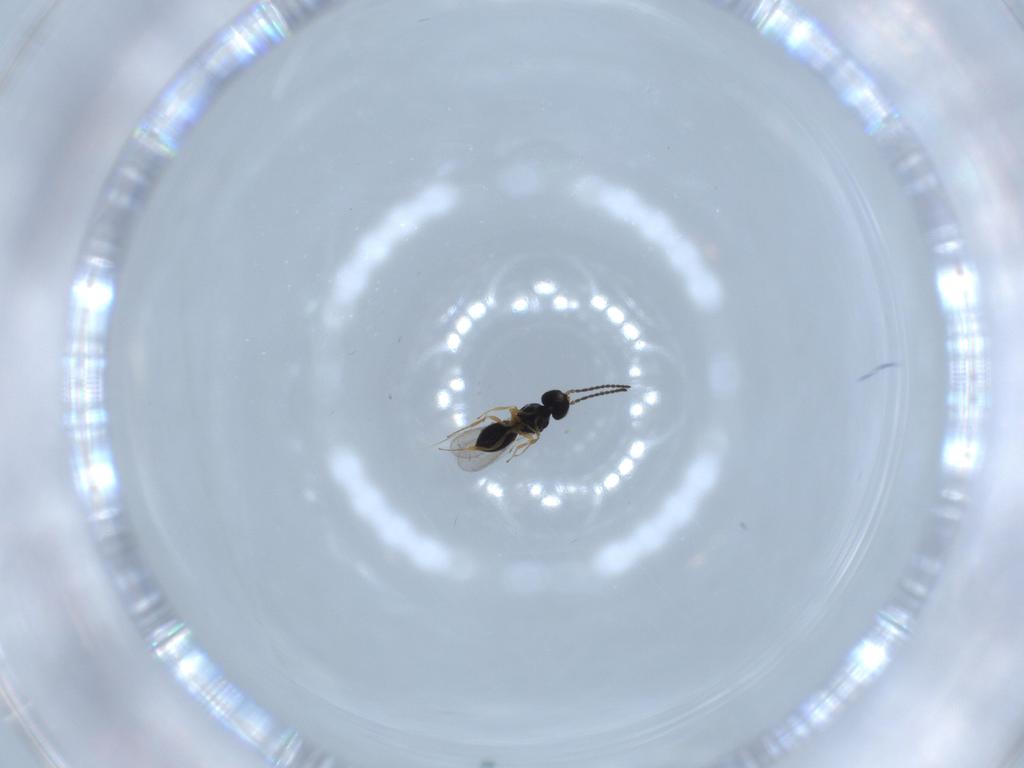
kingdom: Animalia
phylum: Arthropoda
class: Insecta
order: Hymenoptera
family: Scelionidae
